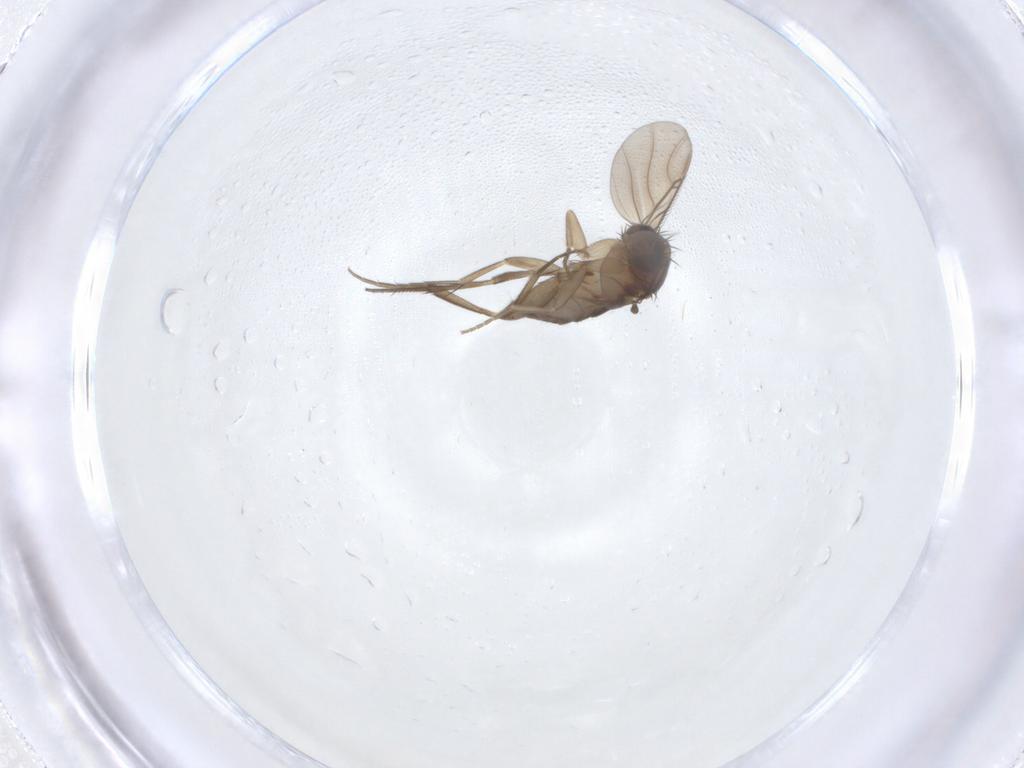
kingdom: Animalia
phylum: Arthropoda
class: Insecta
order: Diptera
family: Phoridae
